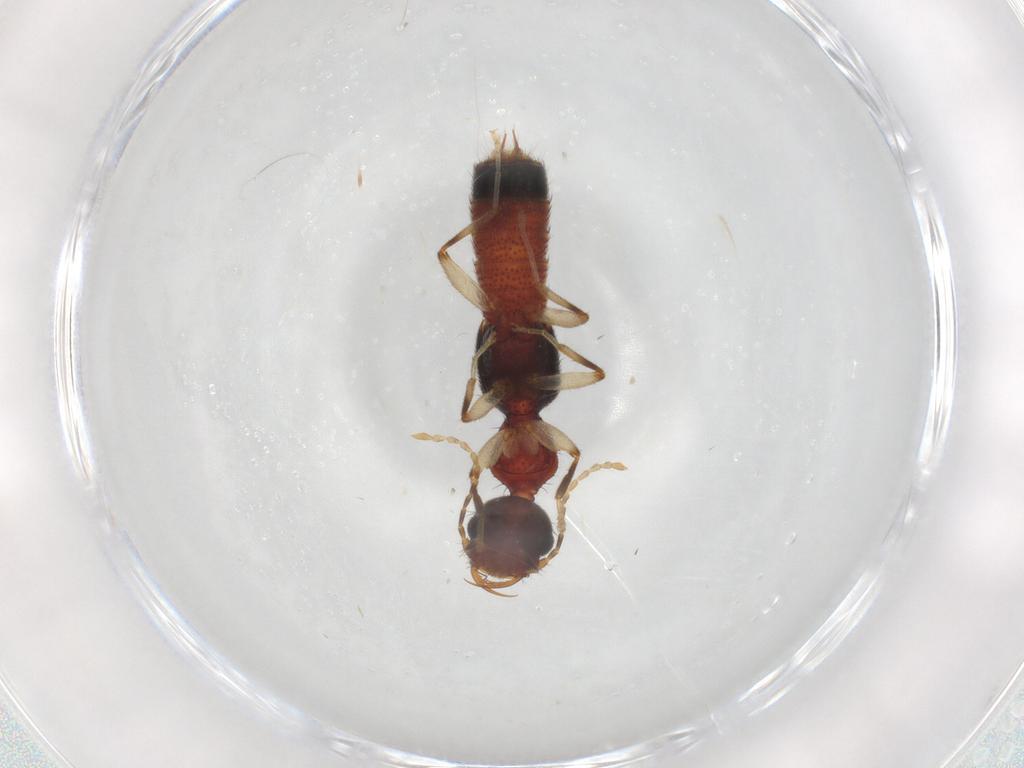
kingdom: Animalia
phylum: Arthropoda
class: Insecta
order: Coleoptera
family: Staphylinidae
